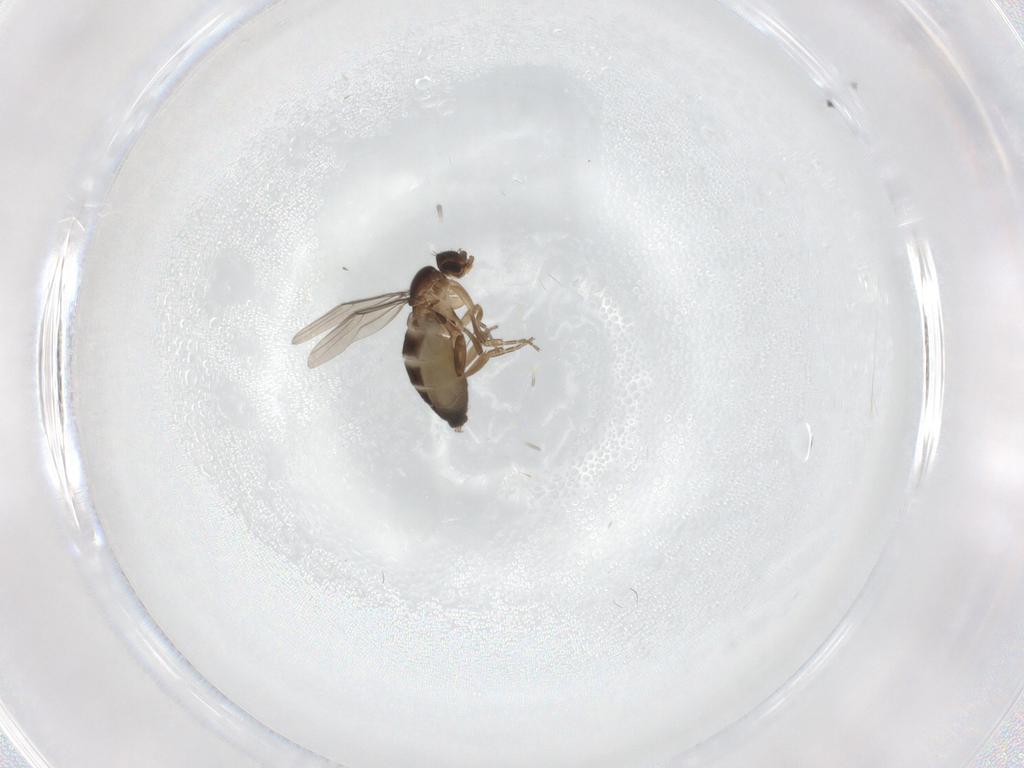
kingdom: Animalia
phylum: Arthropoda
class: Insecta
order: Diptera
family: Phoridae
